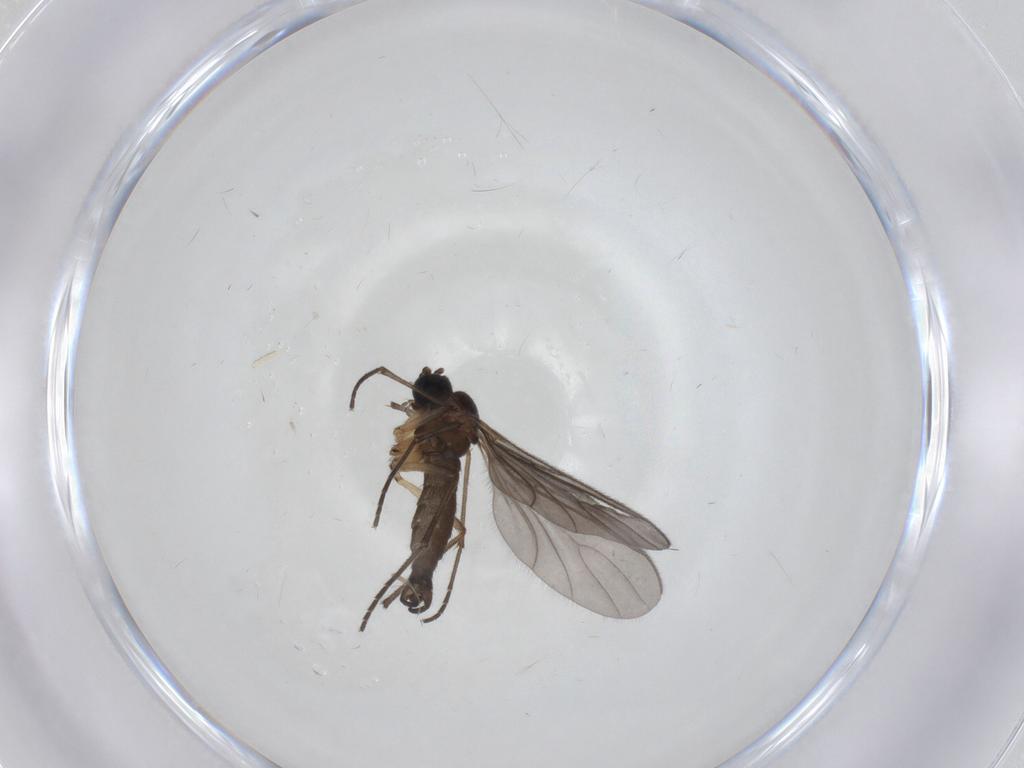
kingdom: Animalia
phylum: Arthropoda
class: Insecta
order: Diptera
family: Sciaridae
